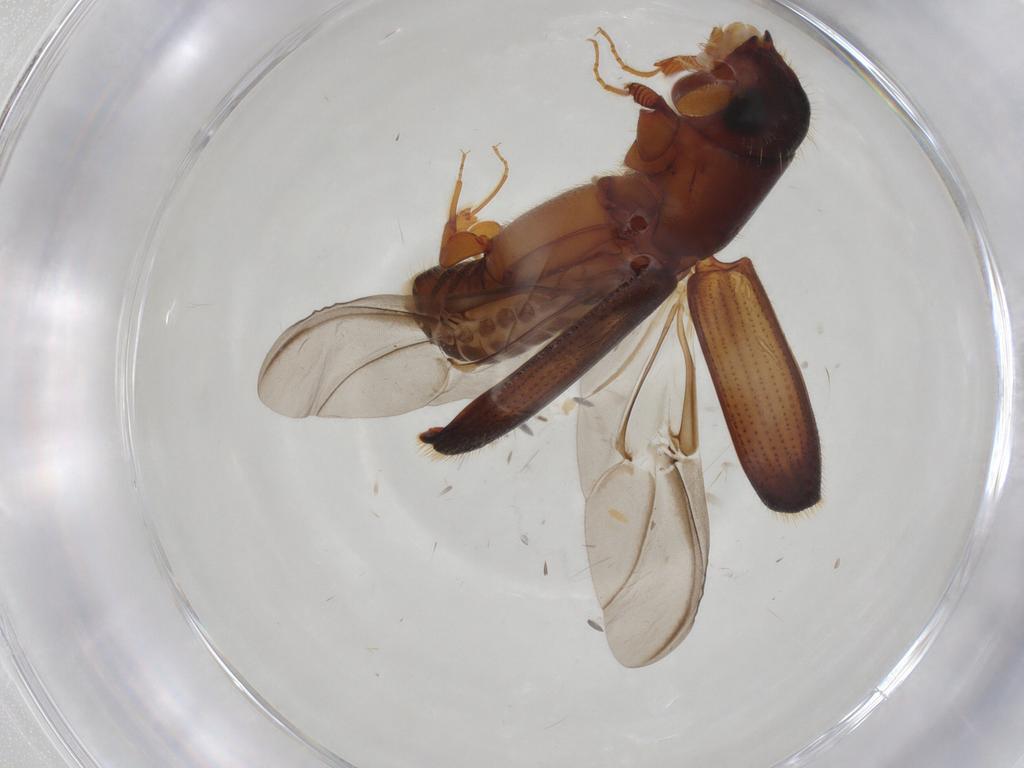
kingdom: Animalia
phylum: Arthropoda
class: Insecta
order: Coleoptera
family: Curculionidae
